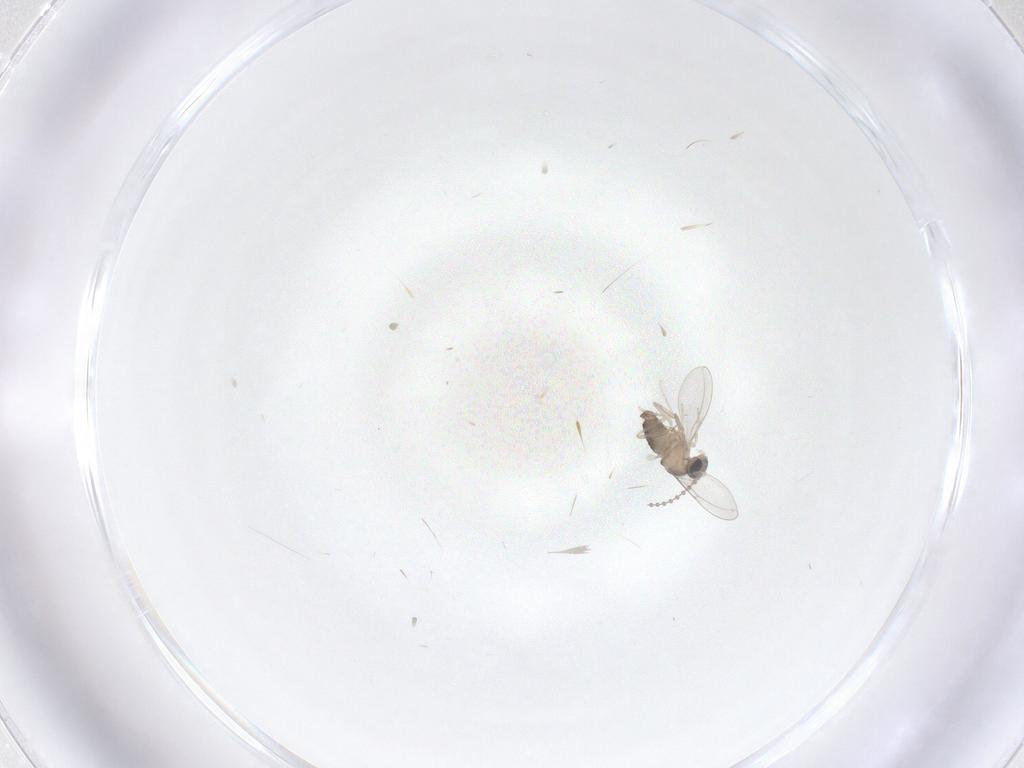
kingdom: Animalia
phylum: Arthropoda
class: Insecta
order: Diptera
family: Cecidomyiidae
